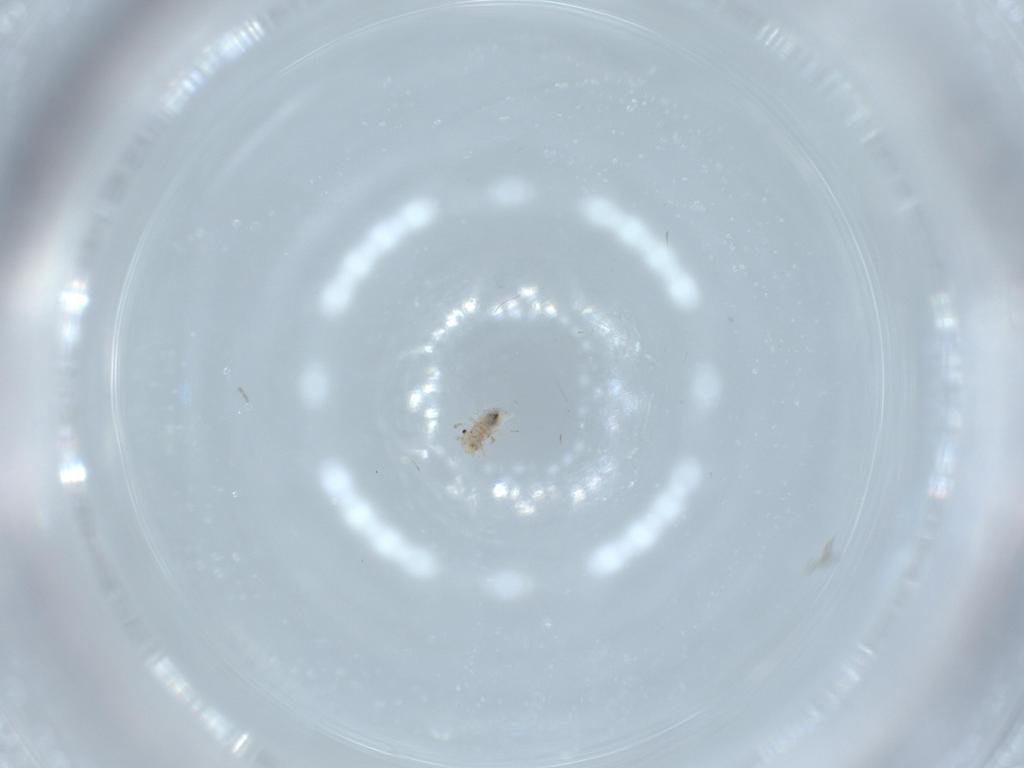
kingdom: Animalia
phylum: Arthropoda
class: Insecta
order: Psocodea
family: Lachesillidae
